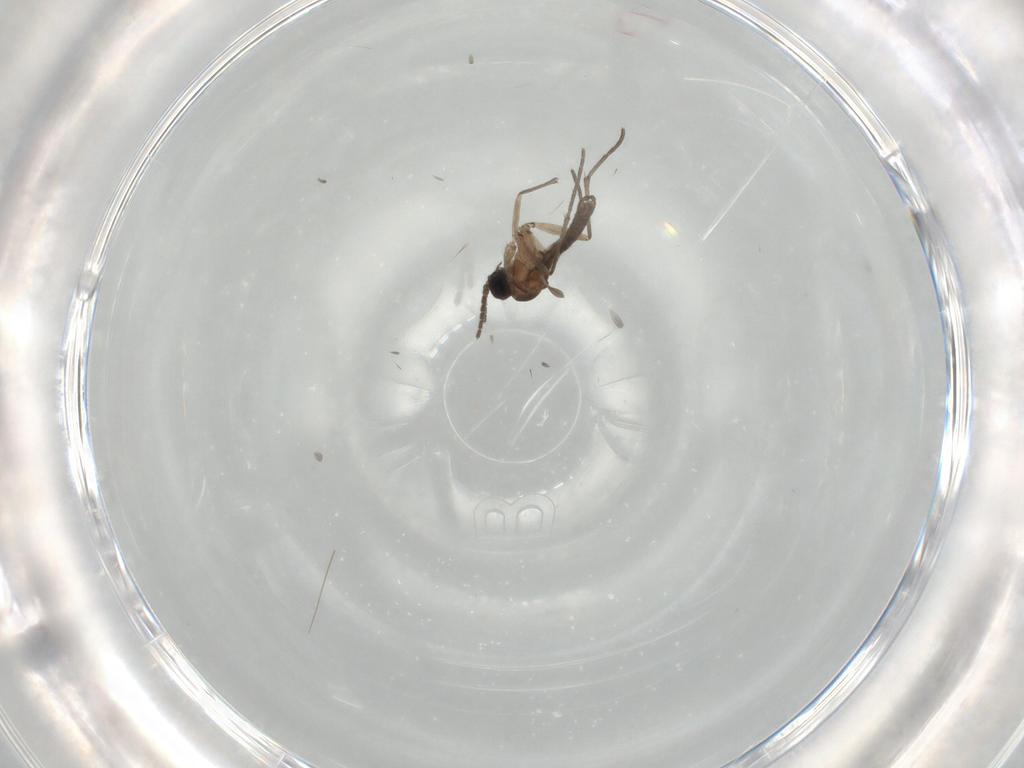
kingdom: Animalia
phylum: Arthropoda
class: Insecta
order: Diptera
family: Sciaridae
